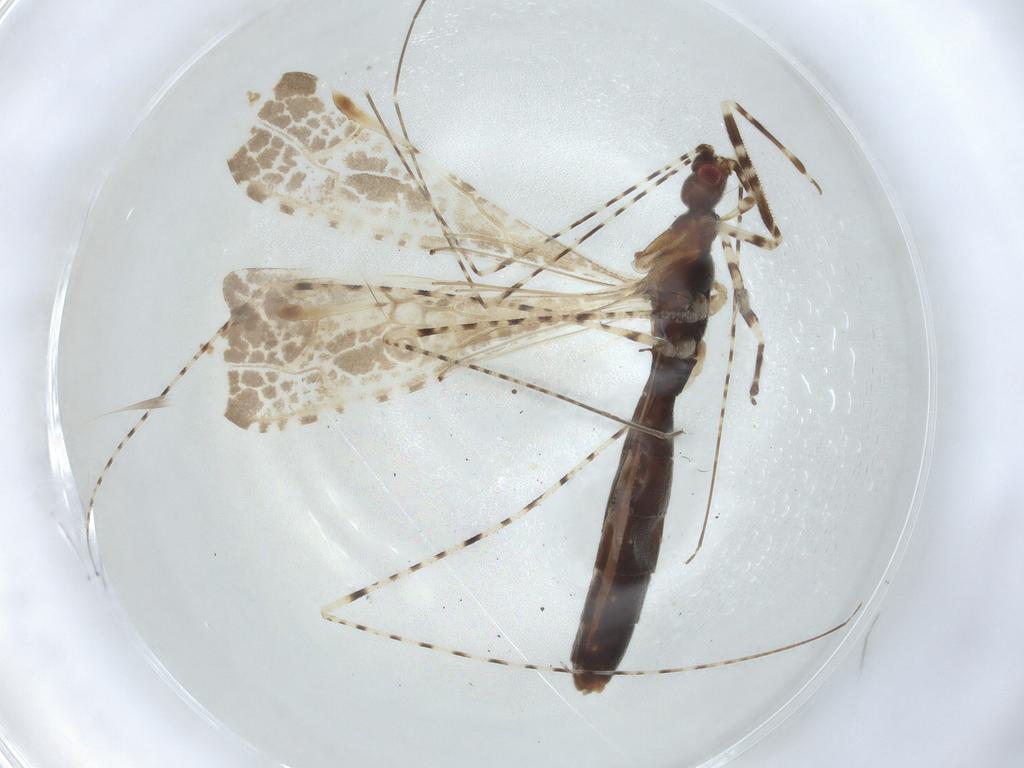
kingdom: Animalia
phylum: Arthropoda
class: Insecta
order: Hemiptera
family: Reduviidae
